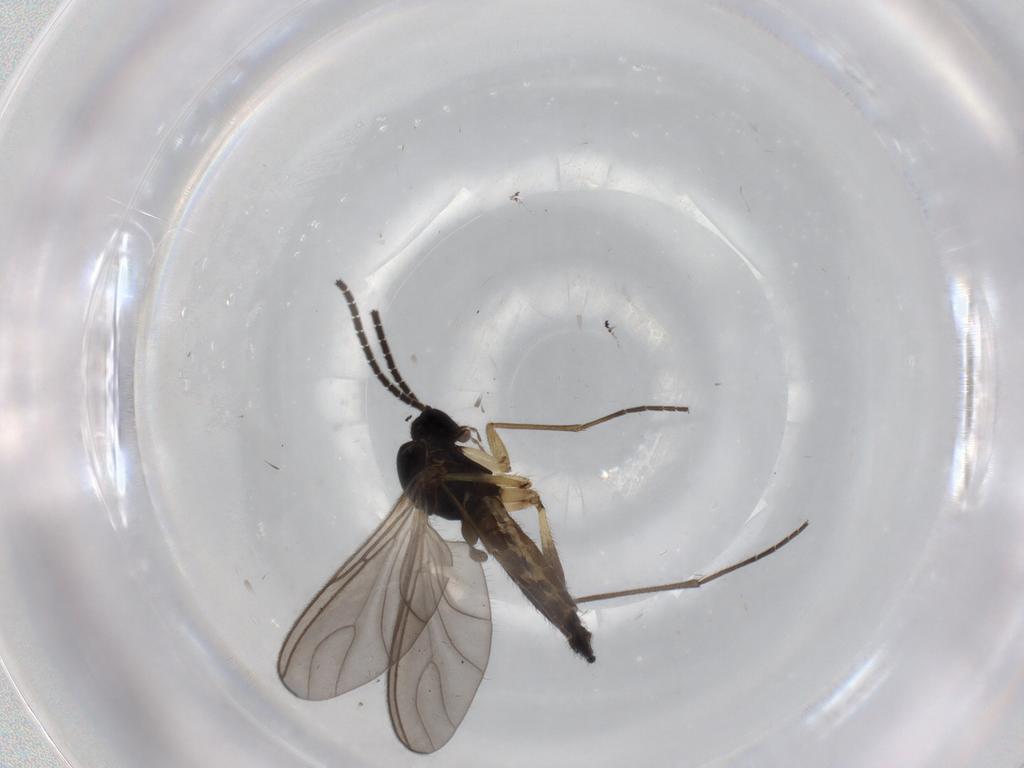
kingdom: Animalia
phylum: Arthropoda
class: Insecta
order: Diptera
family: Sciaridae
